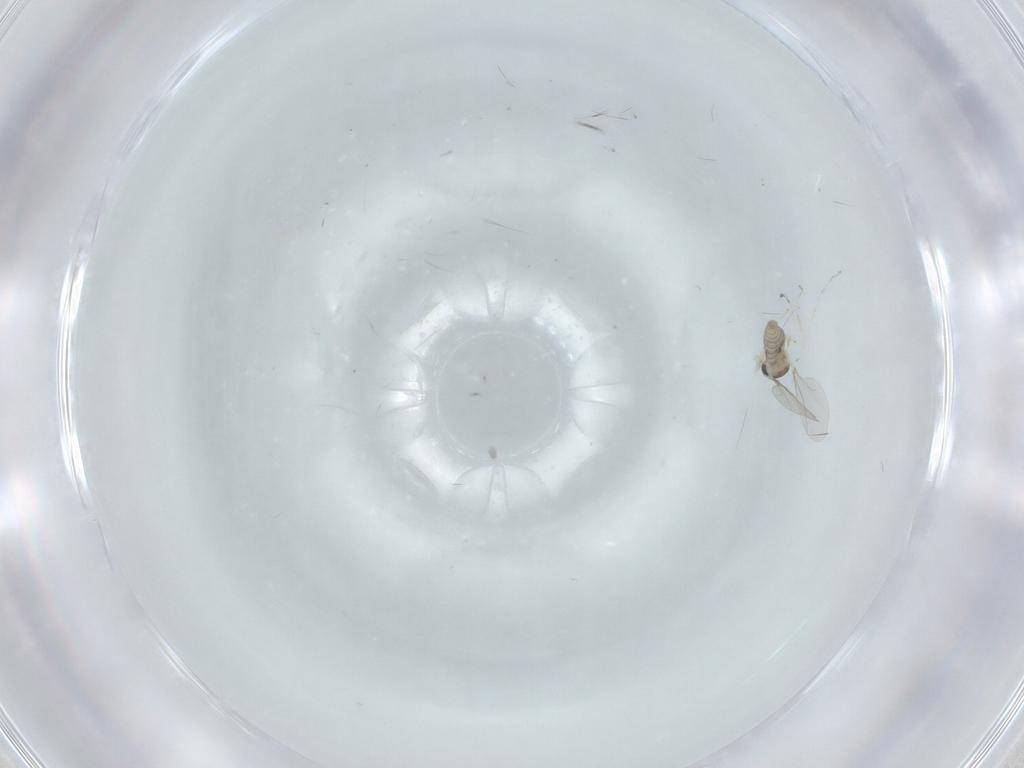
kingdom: Animalia
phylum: Arthropoda
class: Insecta
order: Diptera
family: Cecidomyiidae
